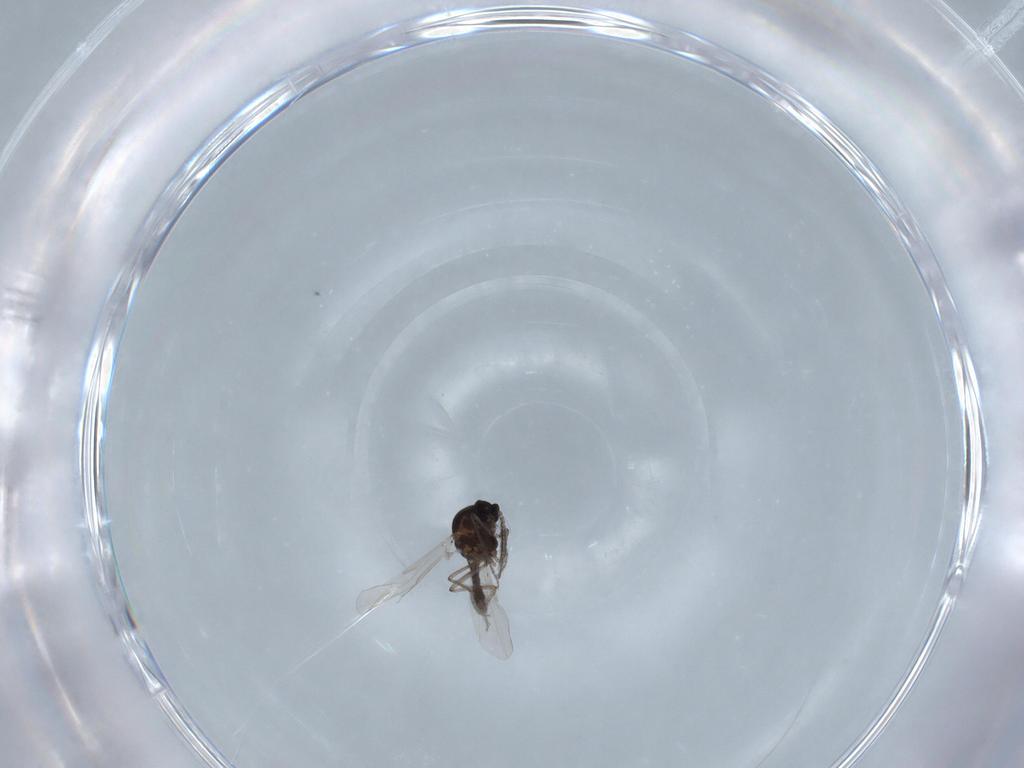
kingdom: Animalia
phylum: Arthropoda
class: Insecta
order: Diptera
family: Ceratopogonidae
